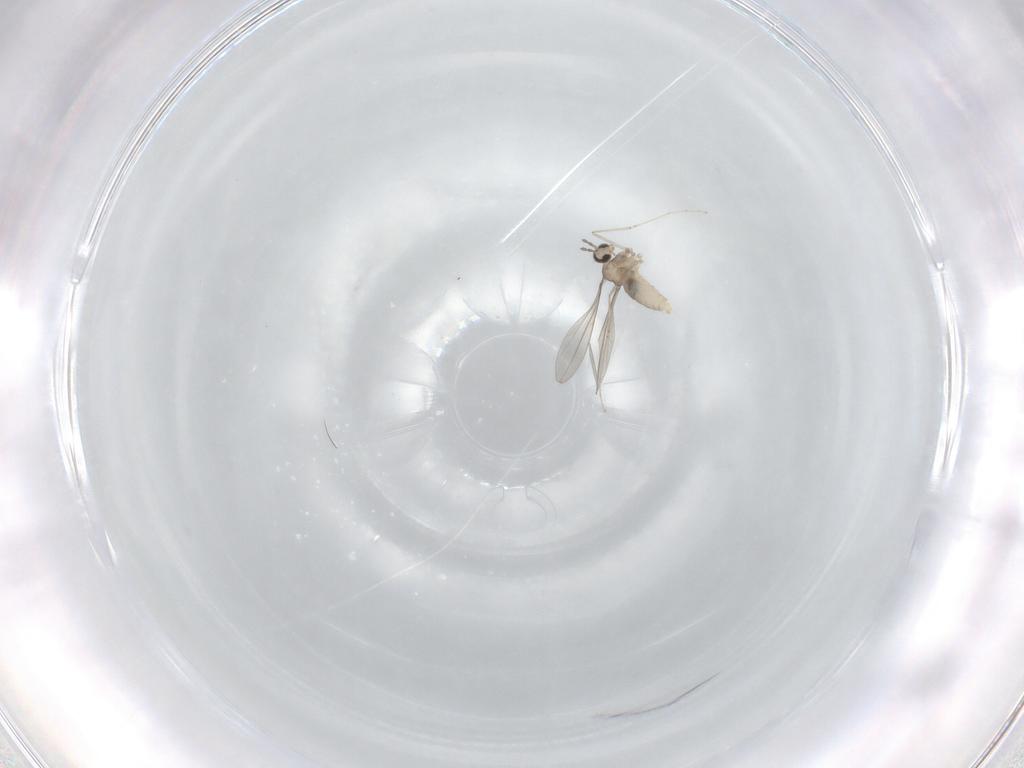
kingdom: Animalia
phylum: Arthropoda
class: Insecta
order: Diptera
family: Cecidomyiidae
